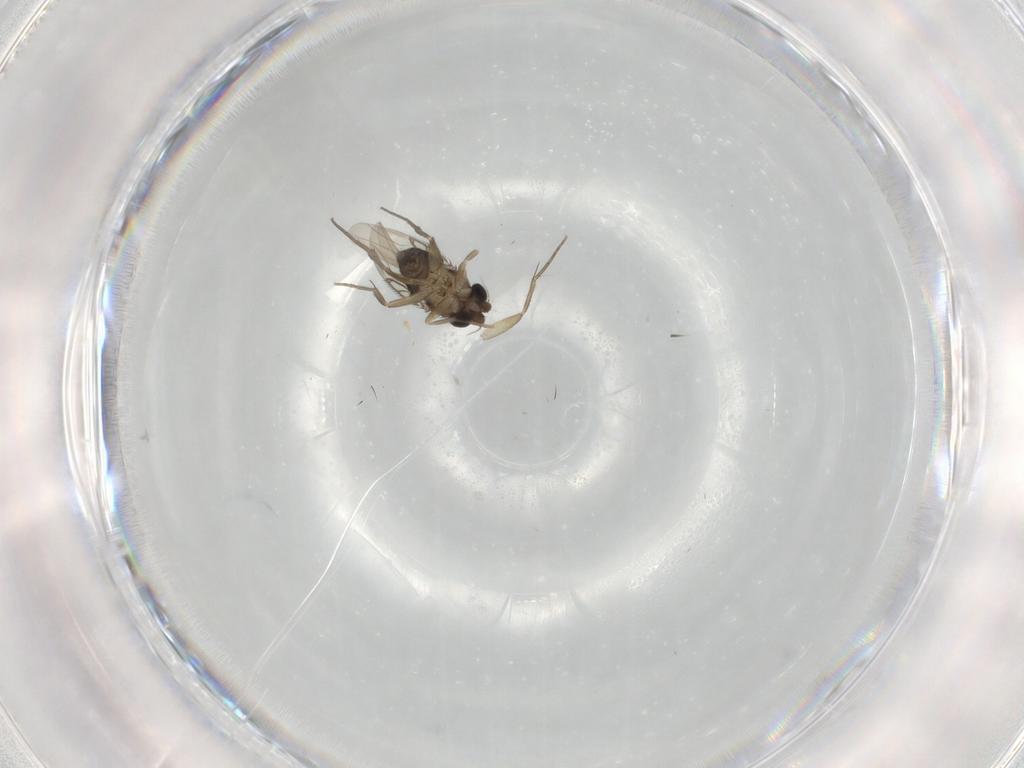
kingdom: Animalia
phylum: Arthropoda
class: Insecta
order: Diptera
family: Phoridae
